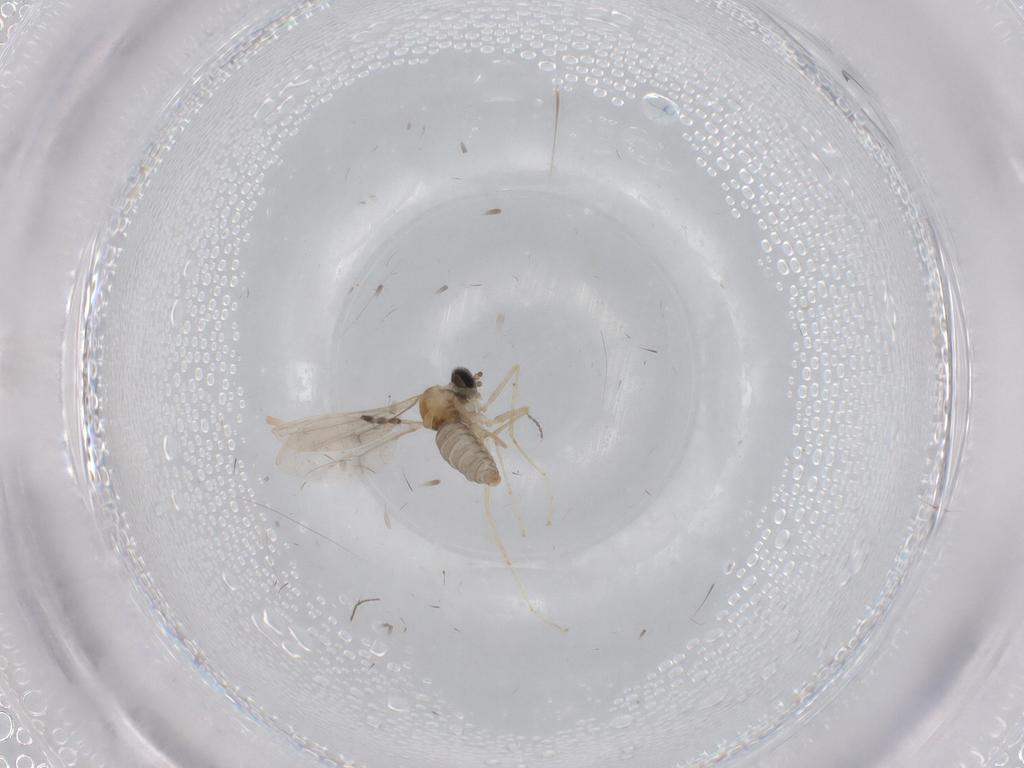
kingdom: Animalia
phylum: Arthropoda
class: Insecta
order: Diptera
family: Cecidomyiidae
